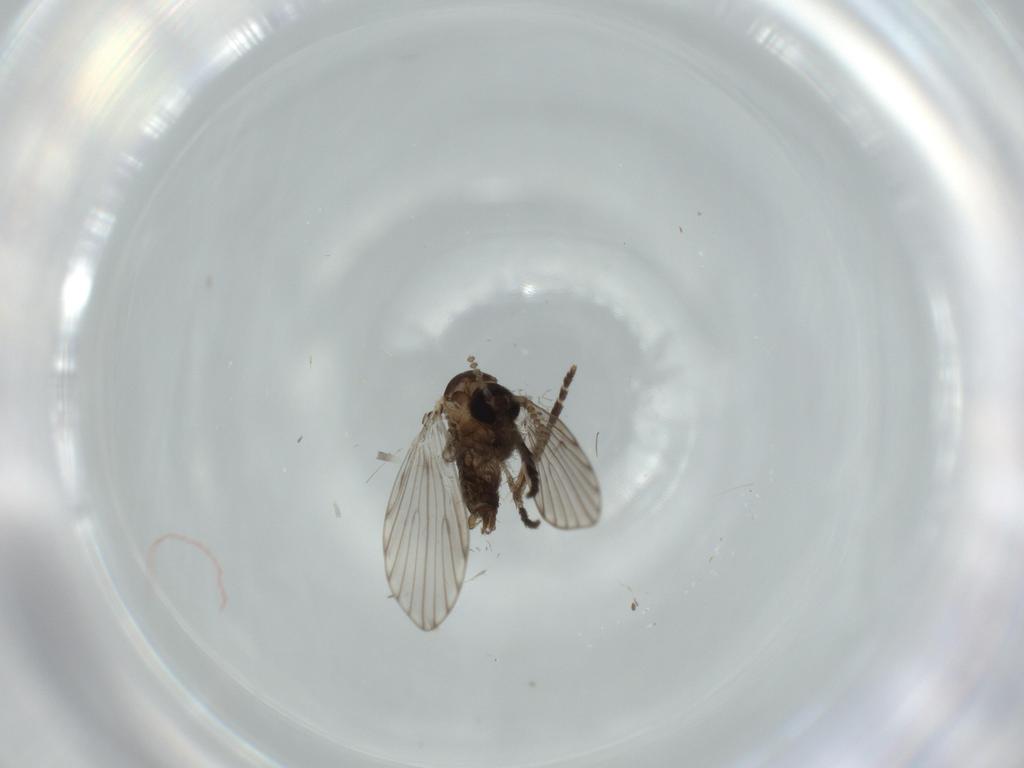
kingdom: Animalia
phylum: Arthropoda
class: Insecta
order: Diptera
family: Psychodidae
